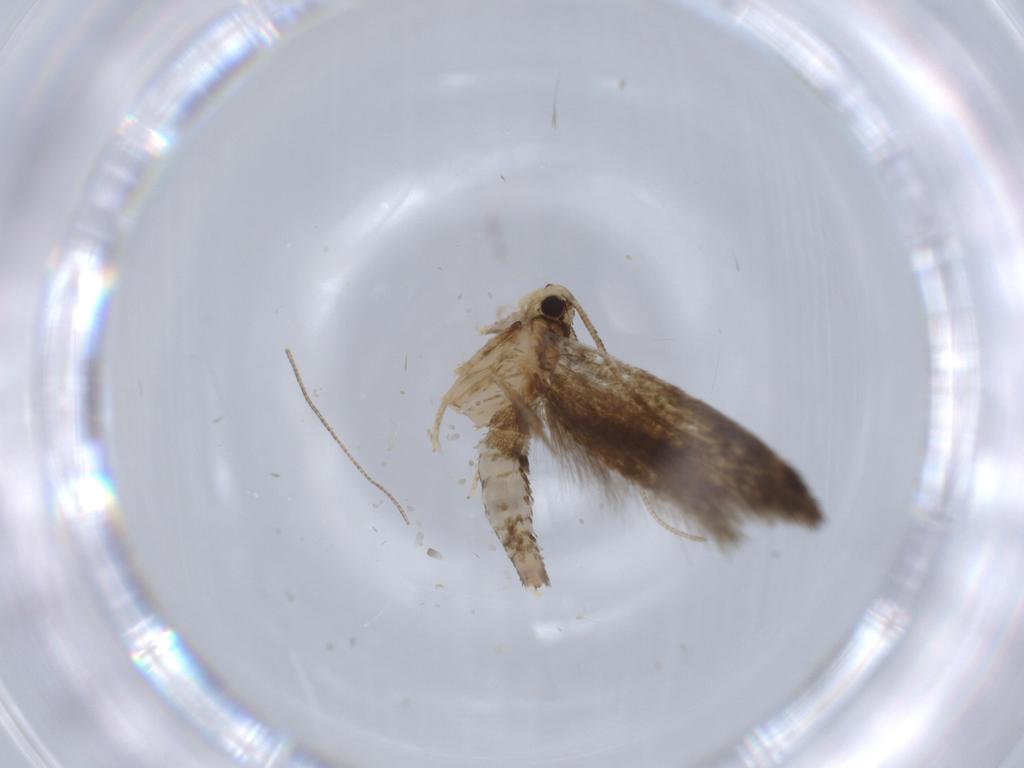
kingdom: Animalia
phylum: Arthropoda
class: Insecta
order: Lepidoptera
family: Tineidae
